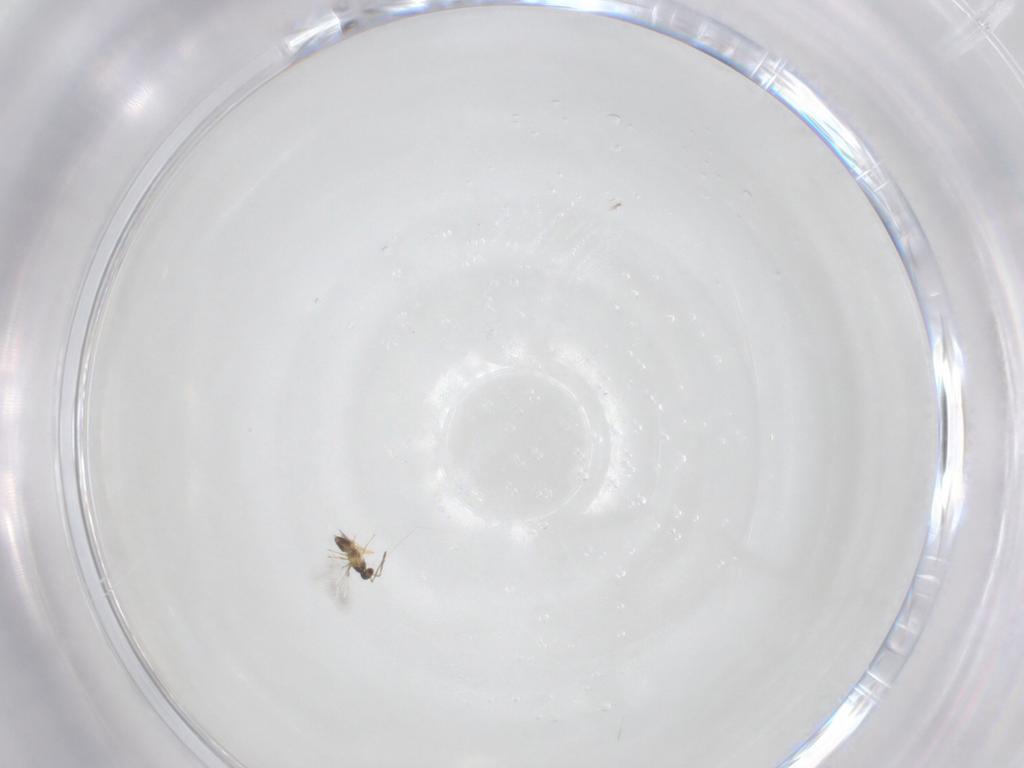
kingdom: Animalia
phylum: Arthropoda
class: Insecta
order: Hymenoptera
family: Mymaridae
